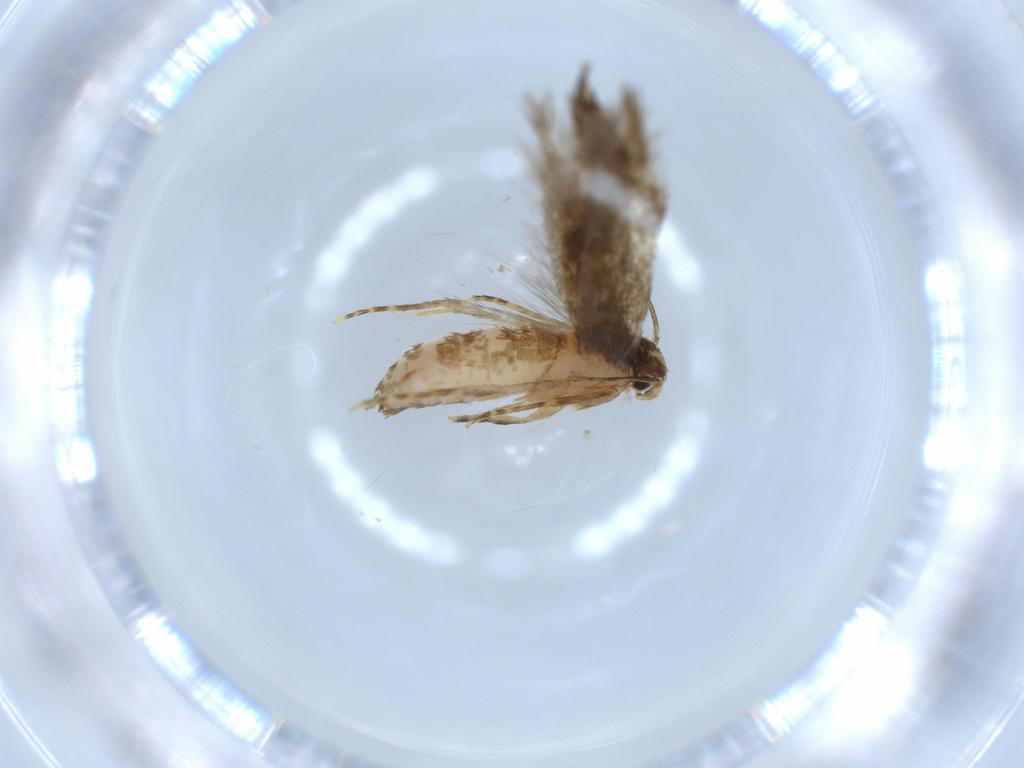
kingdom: Animalia
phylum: Arthropoda
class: Insecta
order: Lepidoptera
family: Tineidae
